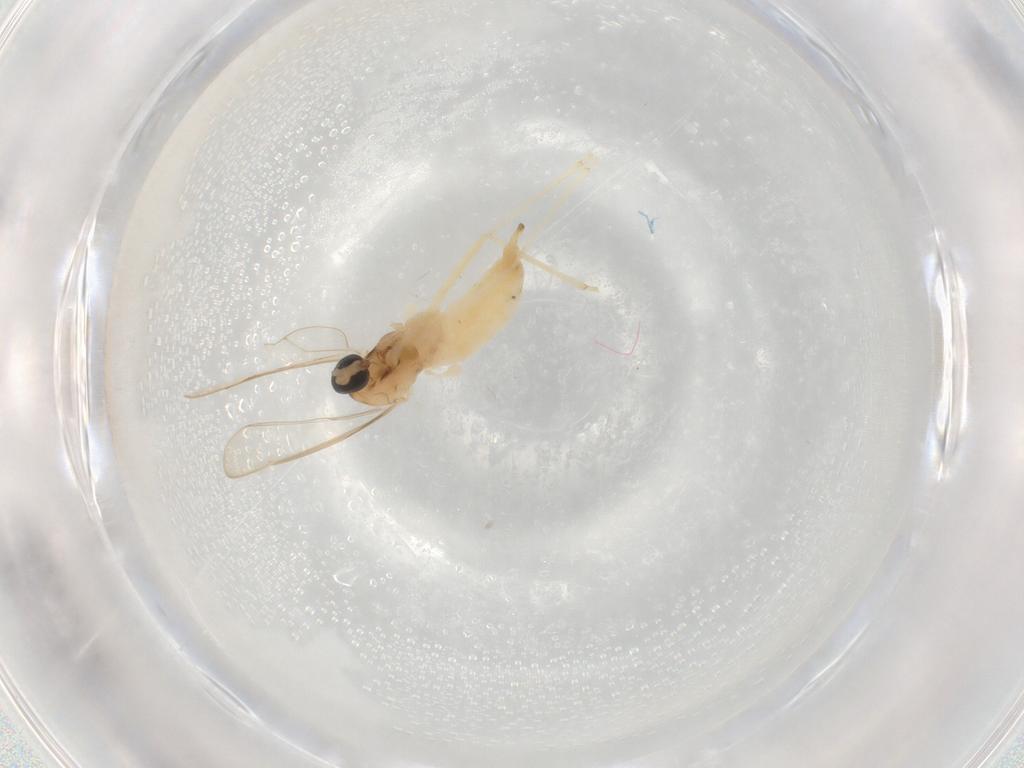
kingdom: Animalia
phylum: Arthropoda
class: Insecta
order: Diptera
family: Cecidomyiidae
